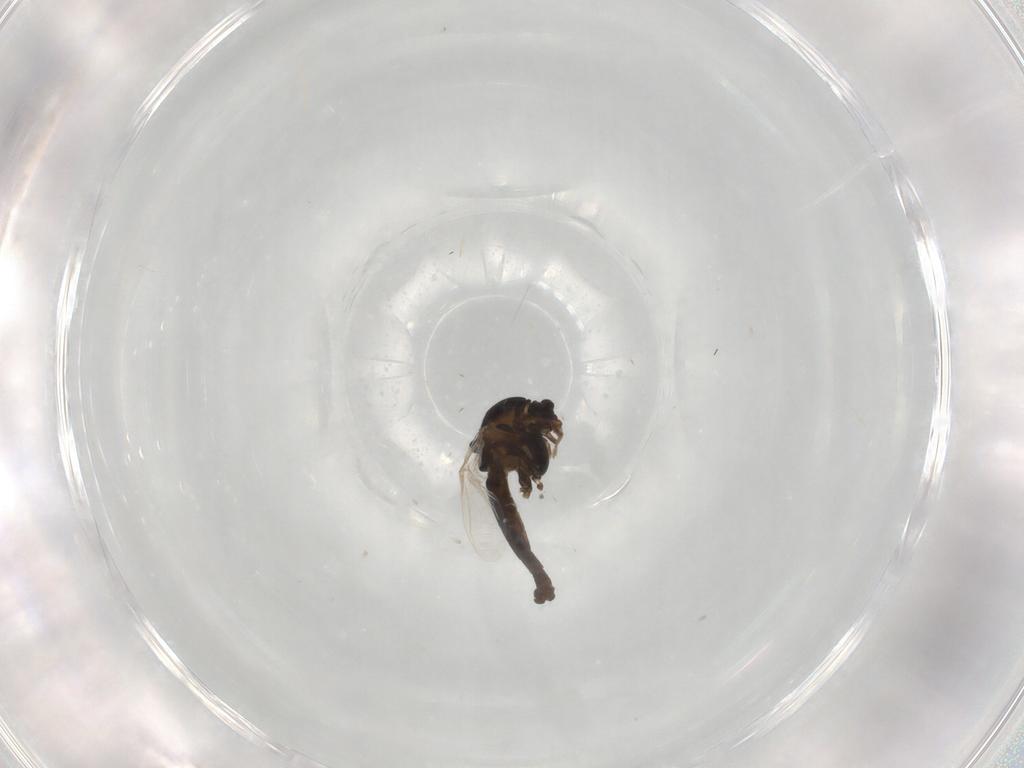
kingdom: Animalia
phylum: Arthropoda
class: Insecta
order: Diptera
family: Chironomidae
